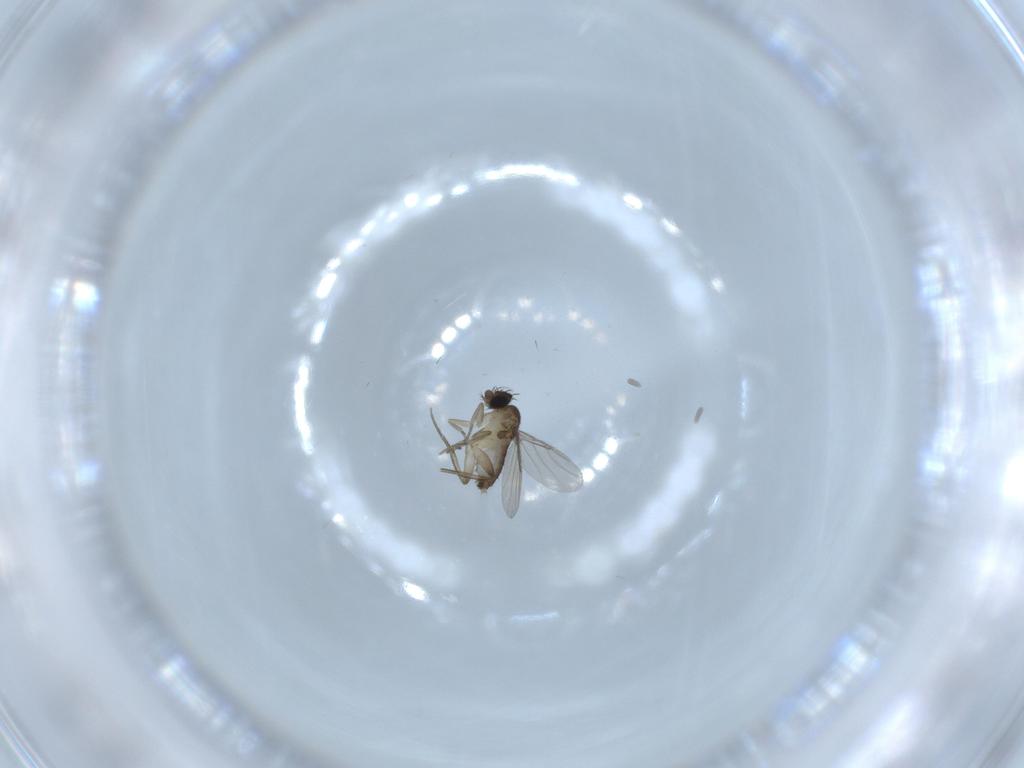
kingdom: Animalia
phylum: Arthropoda
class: Insecta
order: Diptera
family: Phoridae
